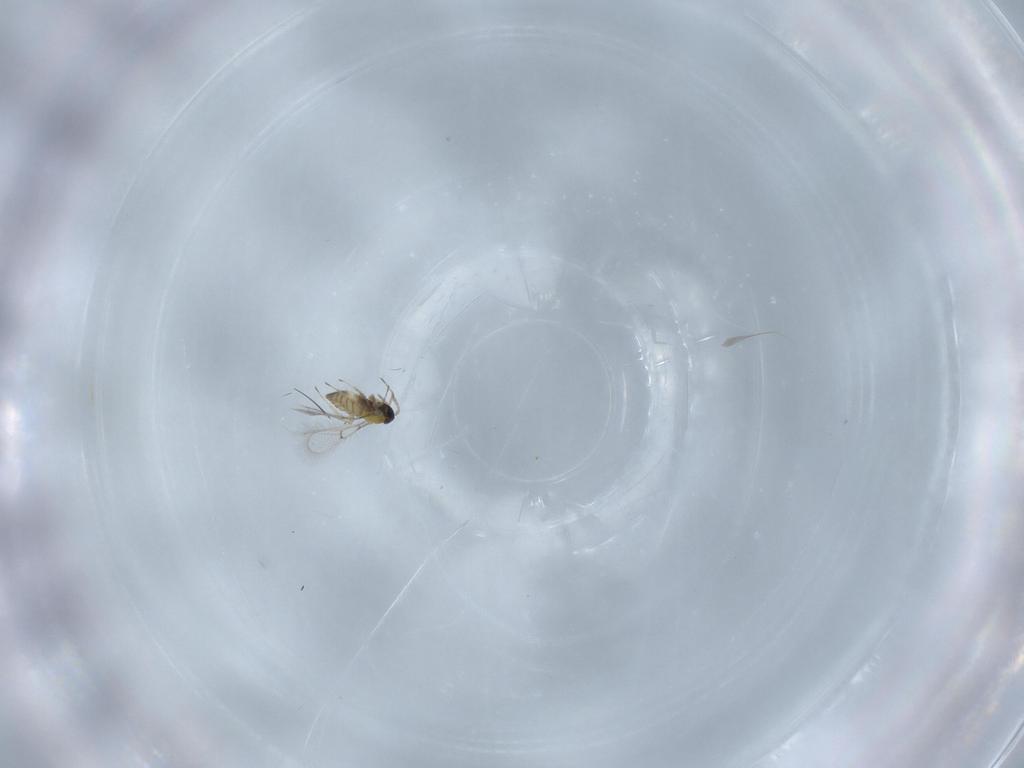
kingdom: Animalia
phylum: Arthropoda
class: Insecta
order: Hymenoptera
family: Trichogrammatidae
